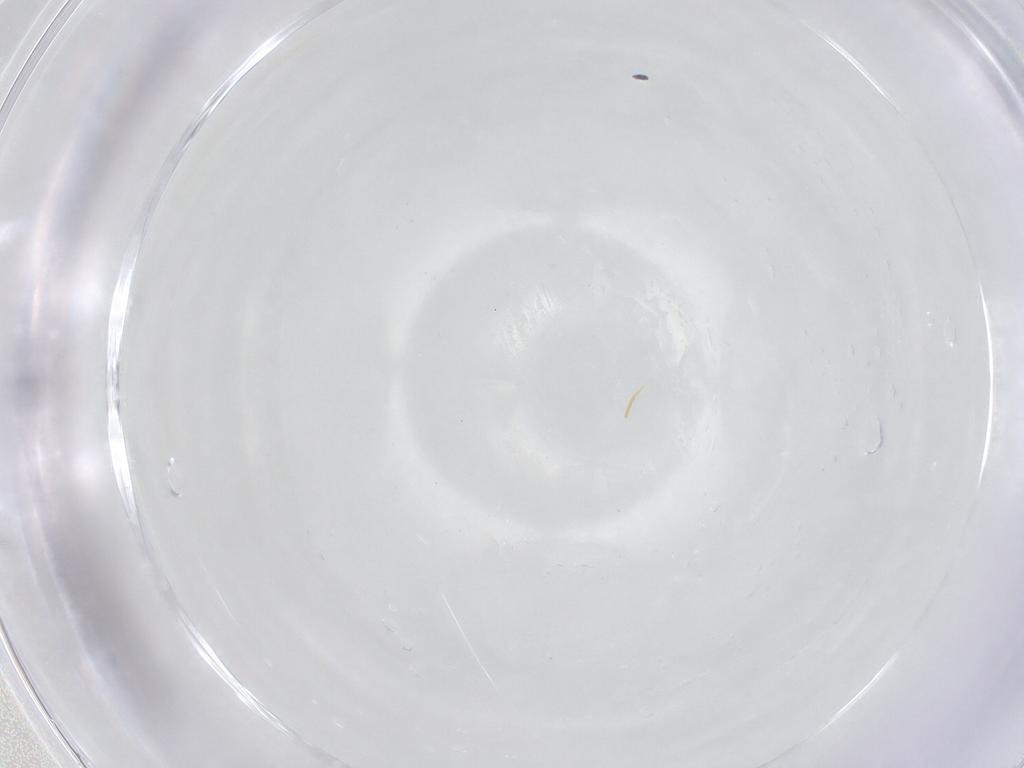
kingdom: Animalia
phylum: Arthropoda
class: Insecta
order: Diptera
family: Chironomidae
